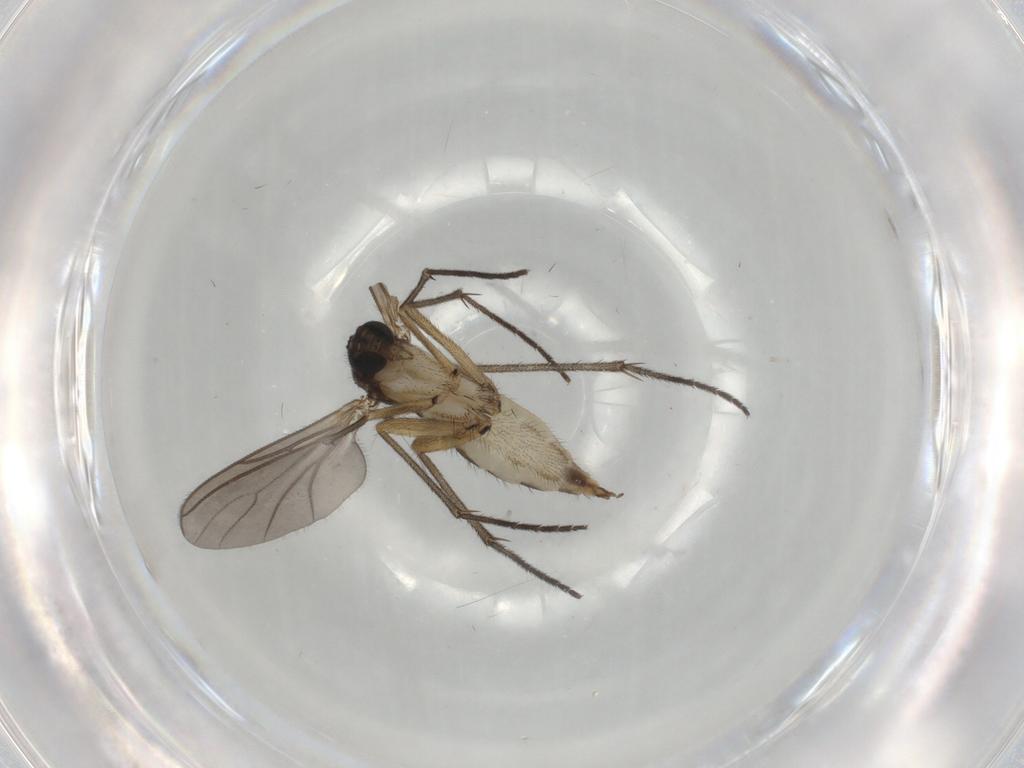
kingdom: Animalia
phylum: Arthropoda
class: Insecta
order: Diptera
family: Sciaridae
